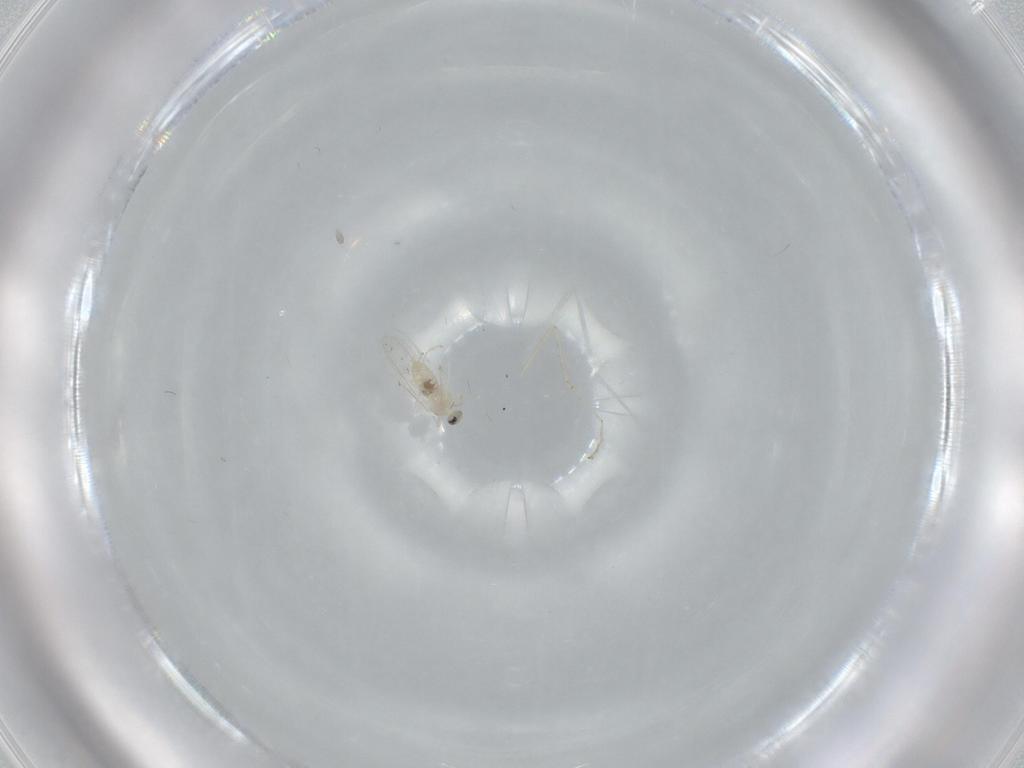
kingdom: Animalia
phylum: Arthropoda
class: Insecta
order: Diptera
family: Cecidomyiidae
